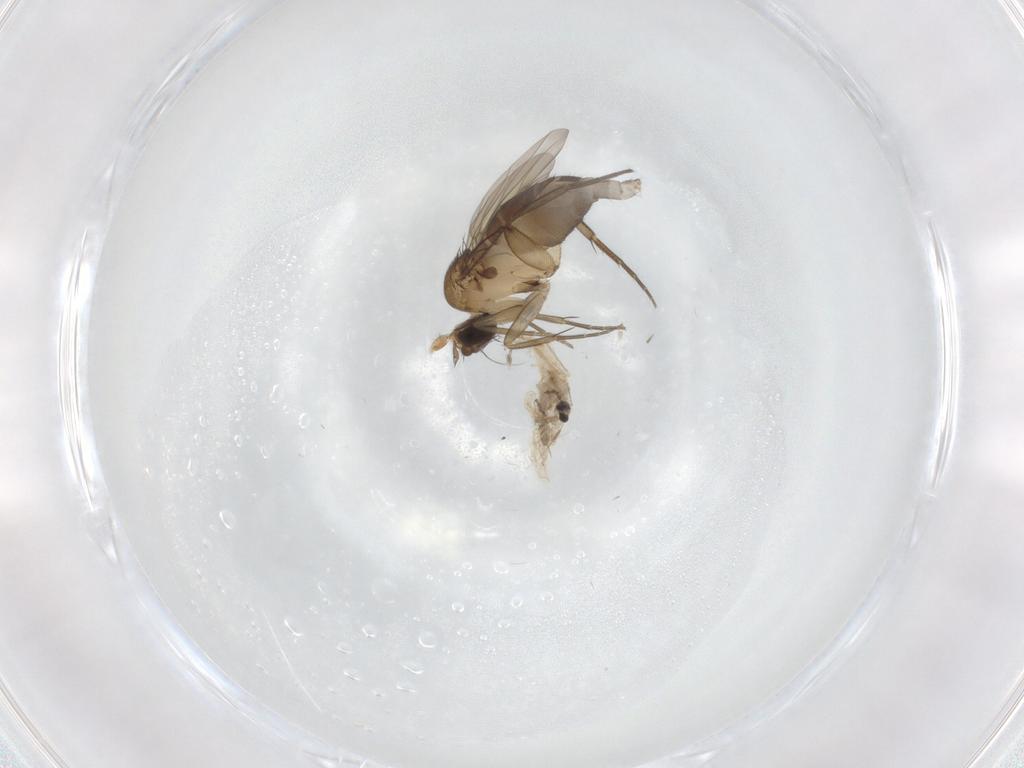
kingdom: Animalia
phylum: Arthropoda
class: Insecta
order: Diptera
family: Phoridae
